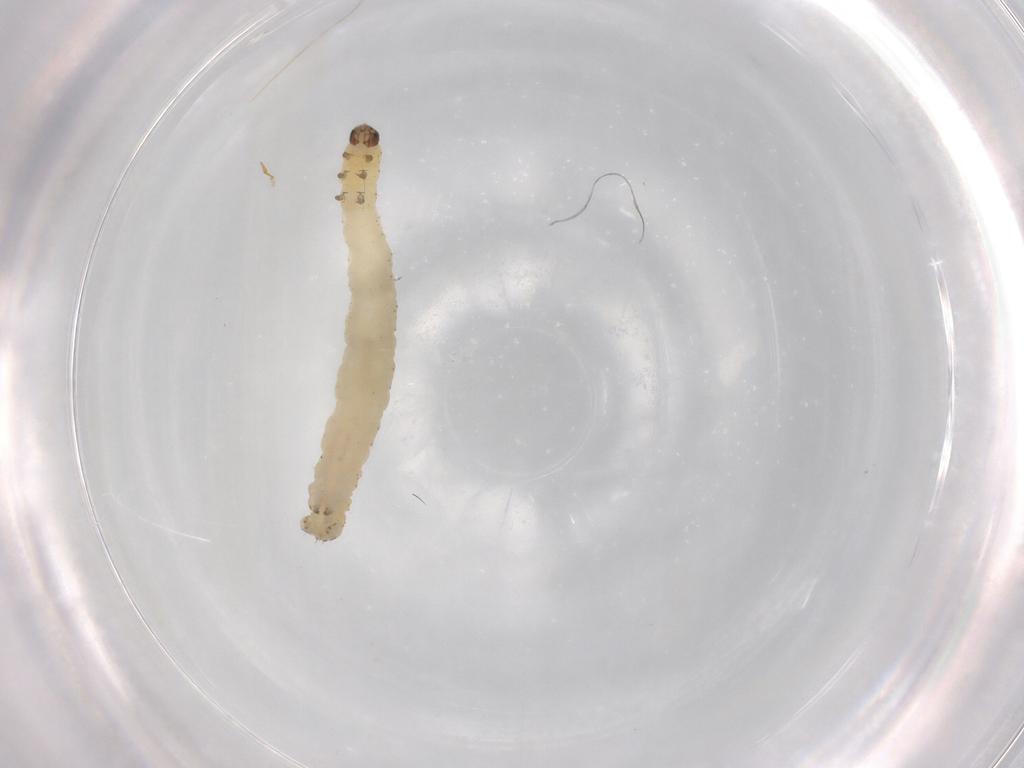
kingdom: Animalia
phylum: Arthropoda
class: Insecta
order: Lepidoptera
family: Geometridae
